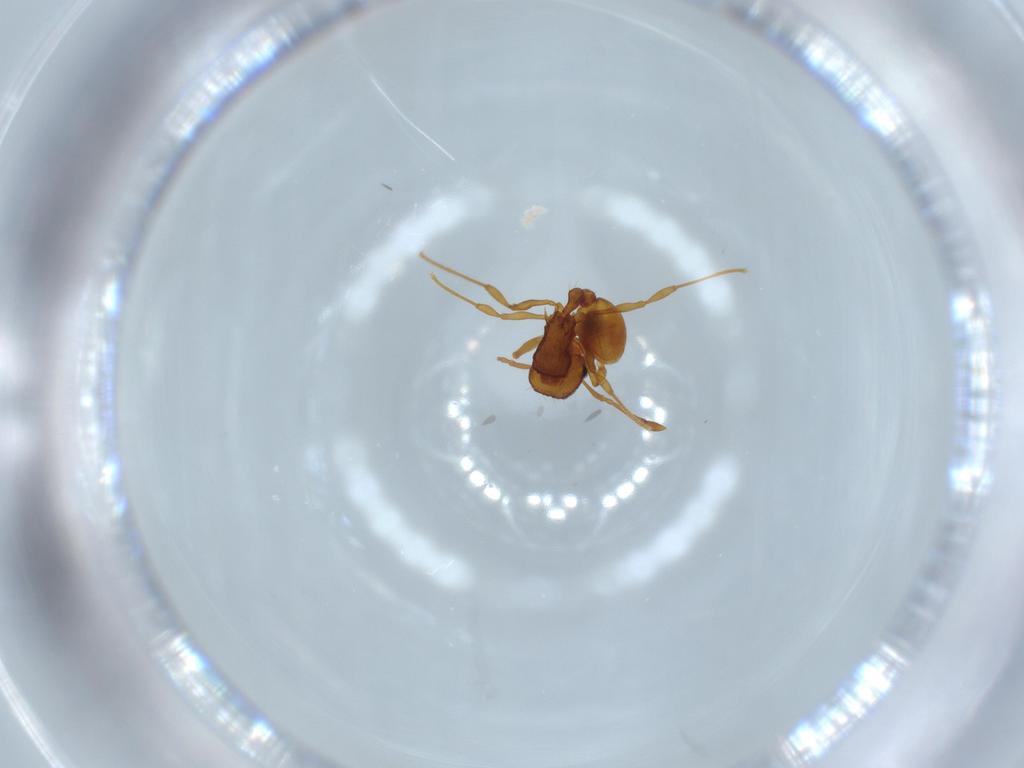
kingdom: Animalia
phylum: Arthropoda
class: Insecta
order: Hymenoptera
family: Formicidae
